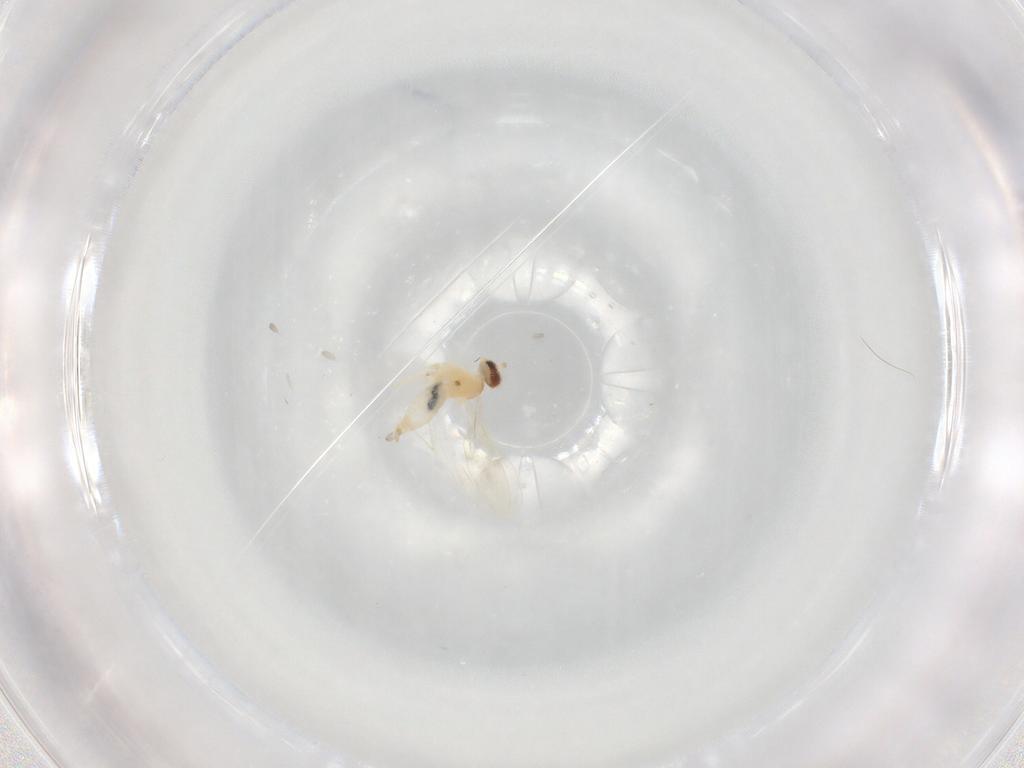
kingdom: Animalia
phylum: Arthropoda
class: Insecta
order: Diptera
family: Cecidomyiidae
